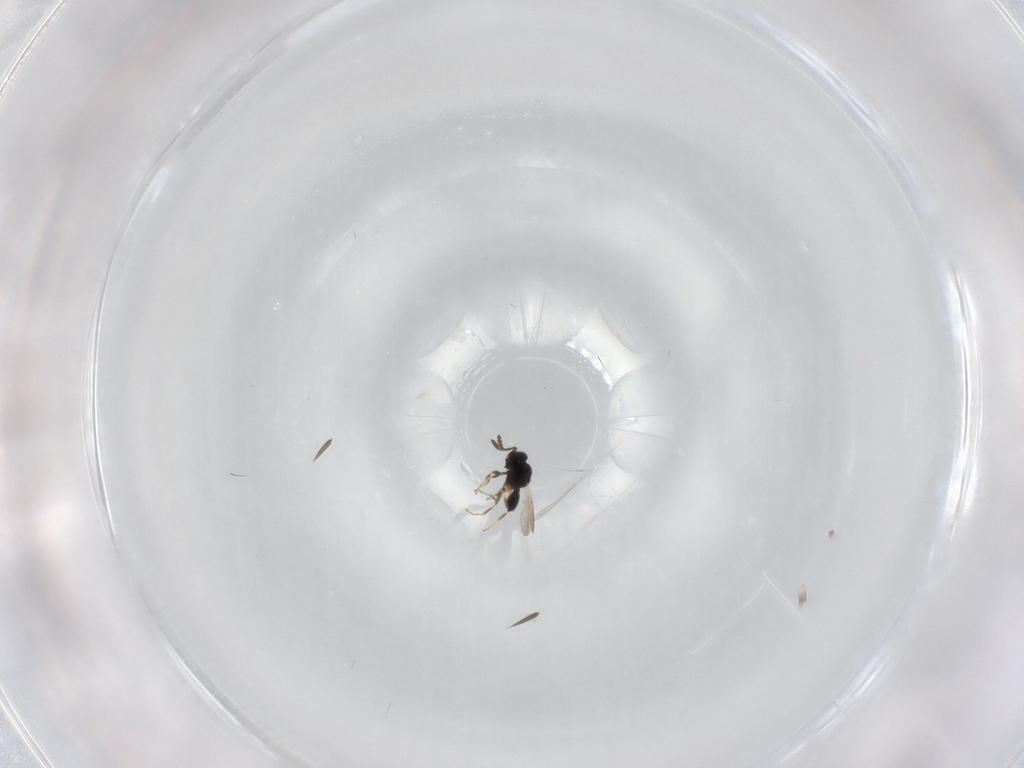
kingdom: Animalia
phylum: Arthropoda
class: Insecta
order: Hymenoptera
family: Scelionidae
